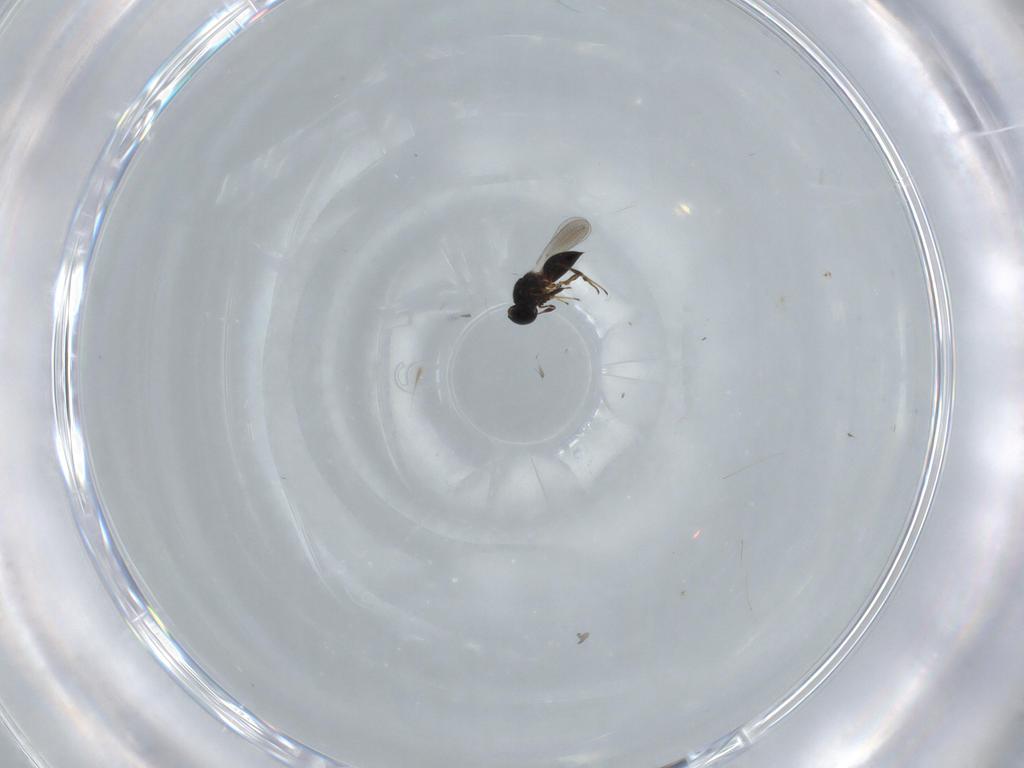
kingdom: Animalia
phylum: Arthropoda
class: Insecta
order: Hymenoptera
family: Platygastridae
